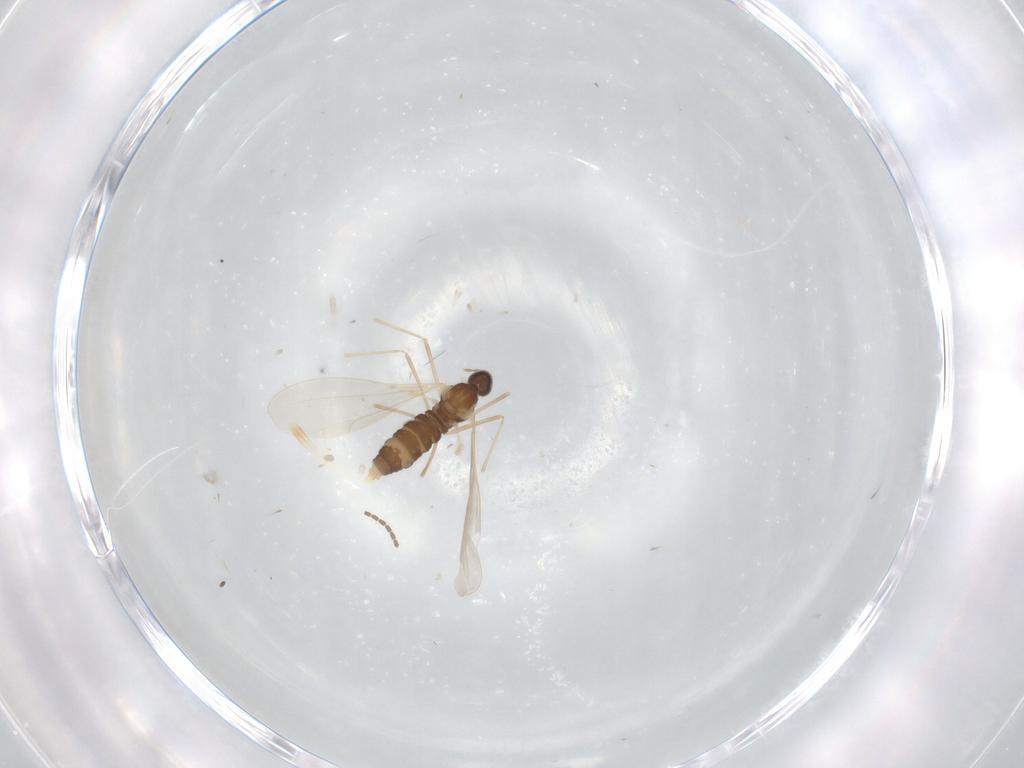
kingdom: Animalia
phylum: Arthropoda
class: Insecta
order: Diptera
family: Cecidomyiidae
